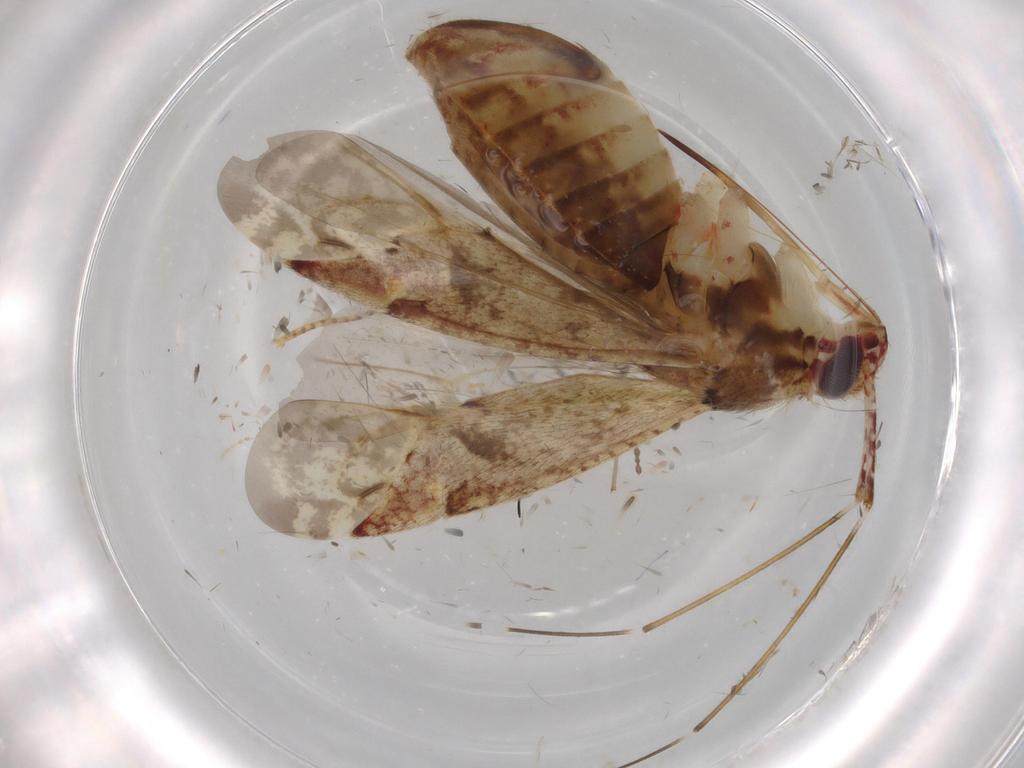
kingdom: Animalia
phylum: Arthropoda
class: Insecta
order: Hemiptera
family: Miridae
